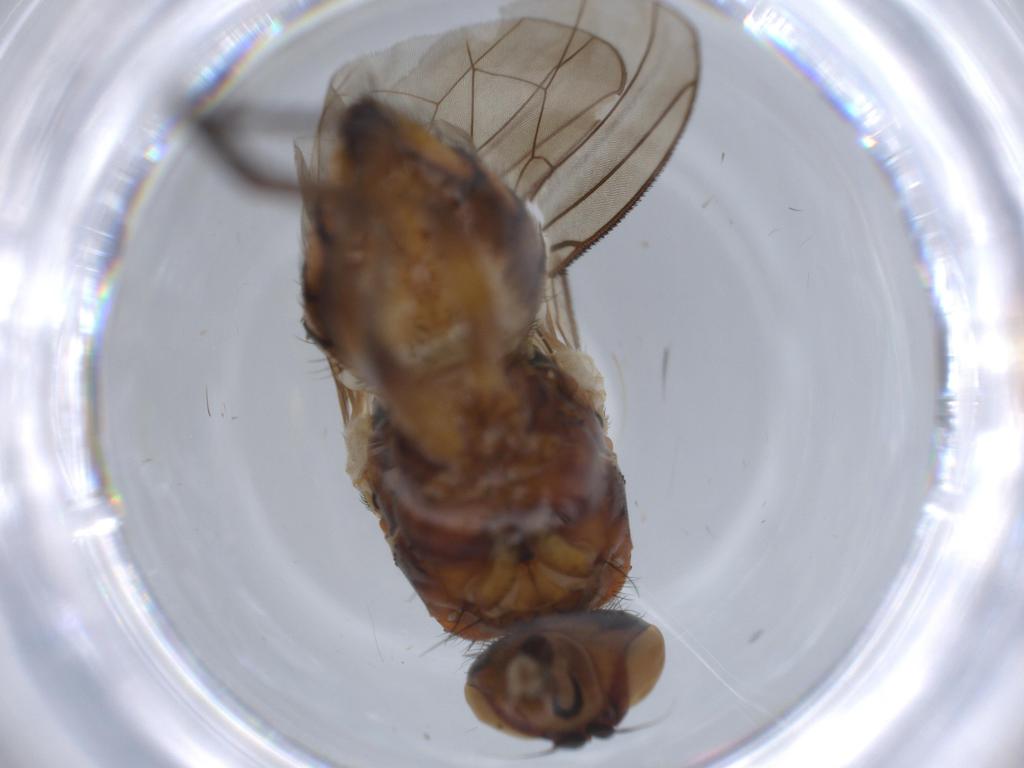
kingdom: Animalia
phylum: Arthropoda
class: Insecta
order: Diptera
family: Anthomyiidae
